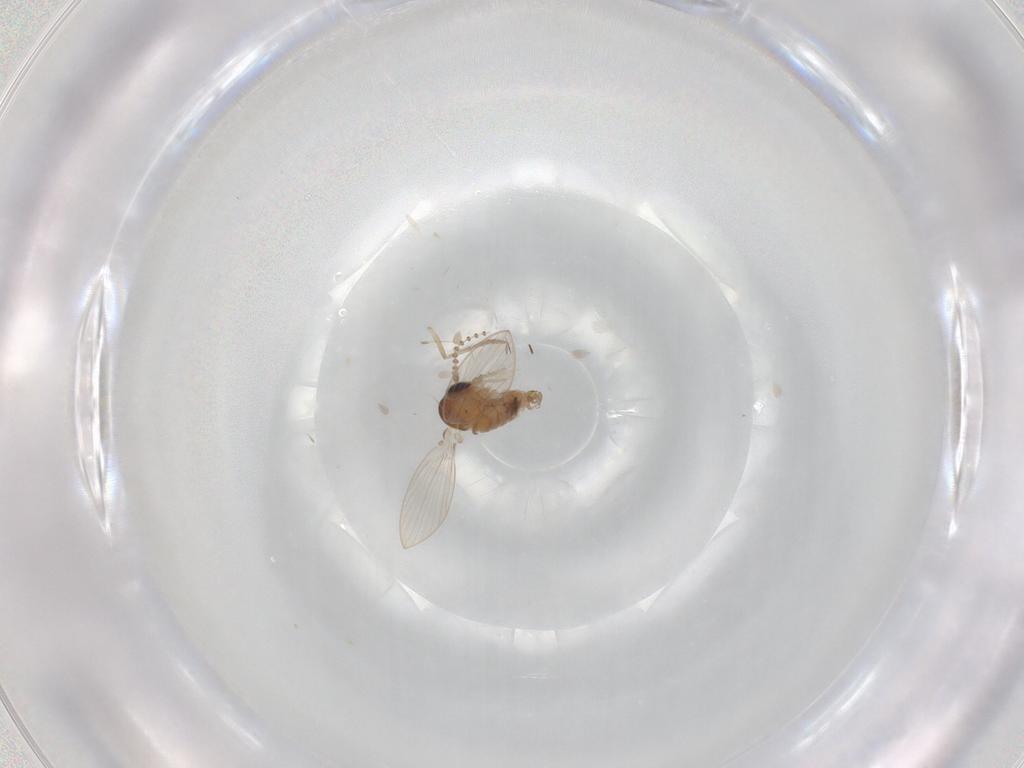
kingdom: Animalia
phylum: Arthropoda
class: Insecta
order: Diptera
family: Psychodidae
